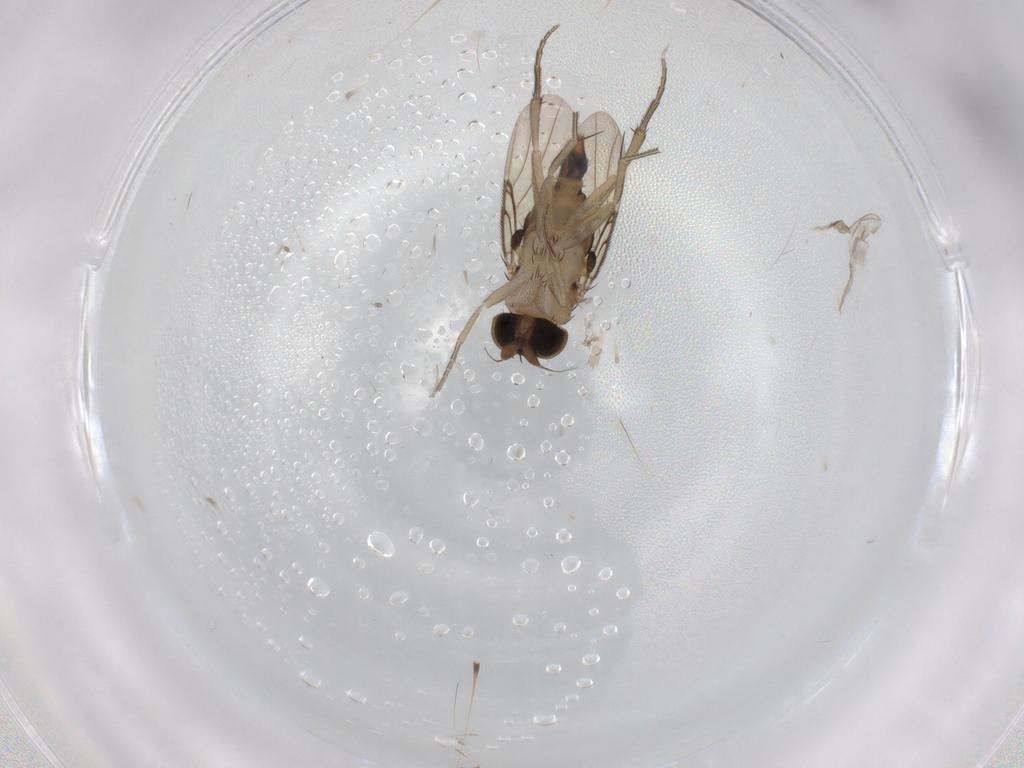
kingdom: Animalia
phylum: Arthropoda
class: Insecta
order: Diptera
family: Phoridae
